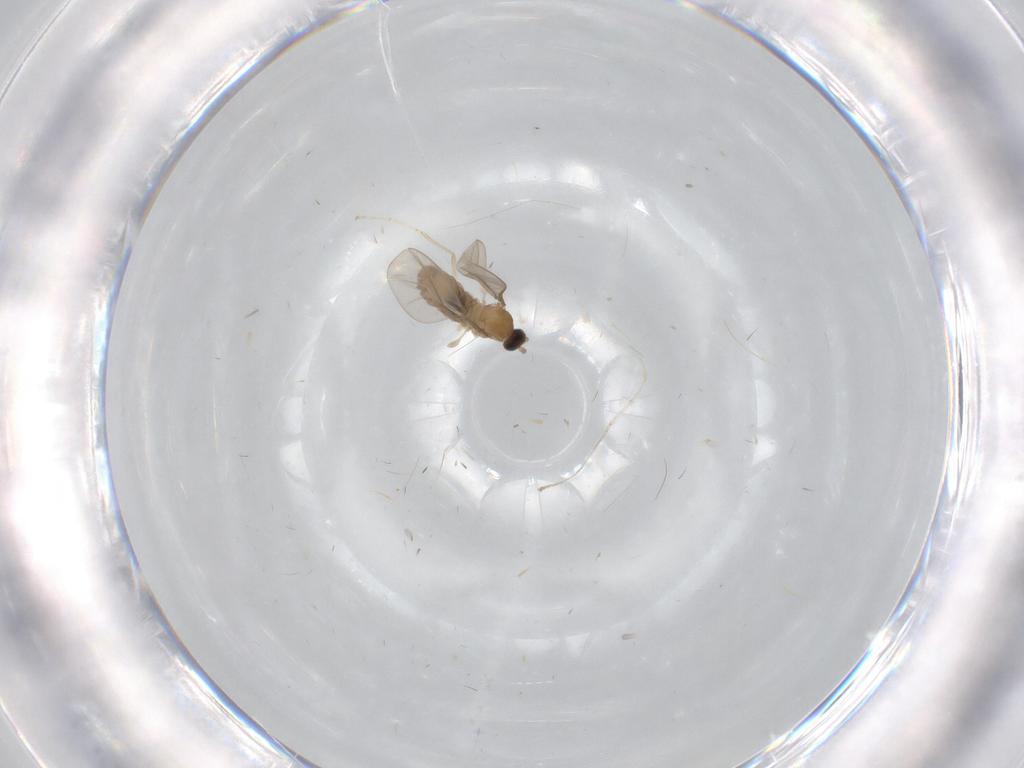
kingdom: Animalia
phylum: Arthropoda
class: Insecta
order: Diptera
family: Cecidomyiidae
